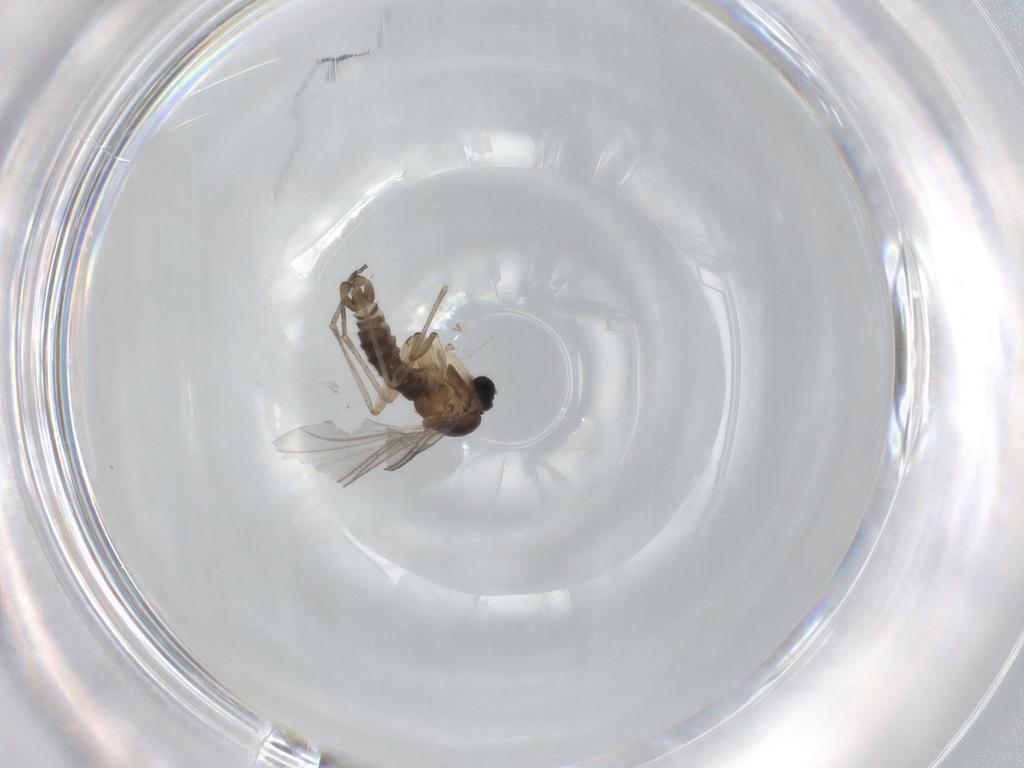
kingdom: Animalia
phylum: Arthropoda
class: Insecta
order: Diptera
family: Sciaridae
